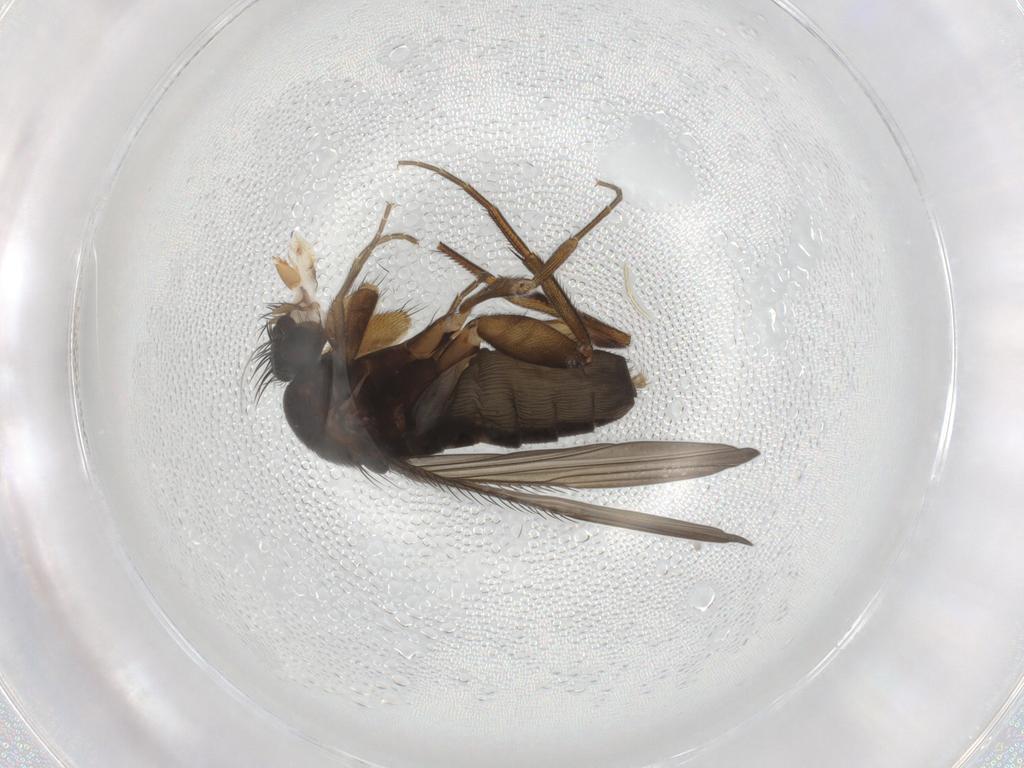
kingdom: Animalia
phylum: Arthropoda
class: Insecta
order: Diptera
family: Phoridae
